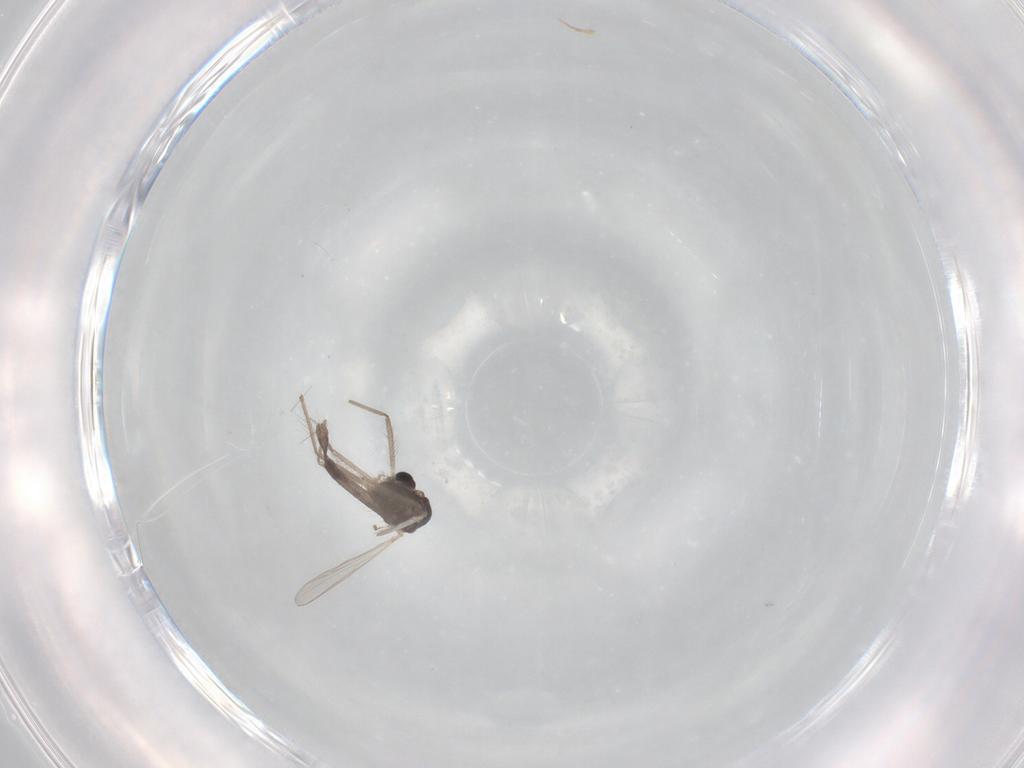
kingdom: Animalia
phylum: Arthropoda
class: Insecta
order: Diptera
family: Chironomidae
